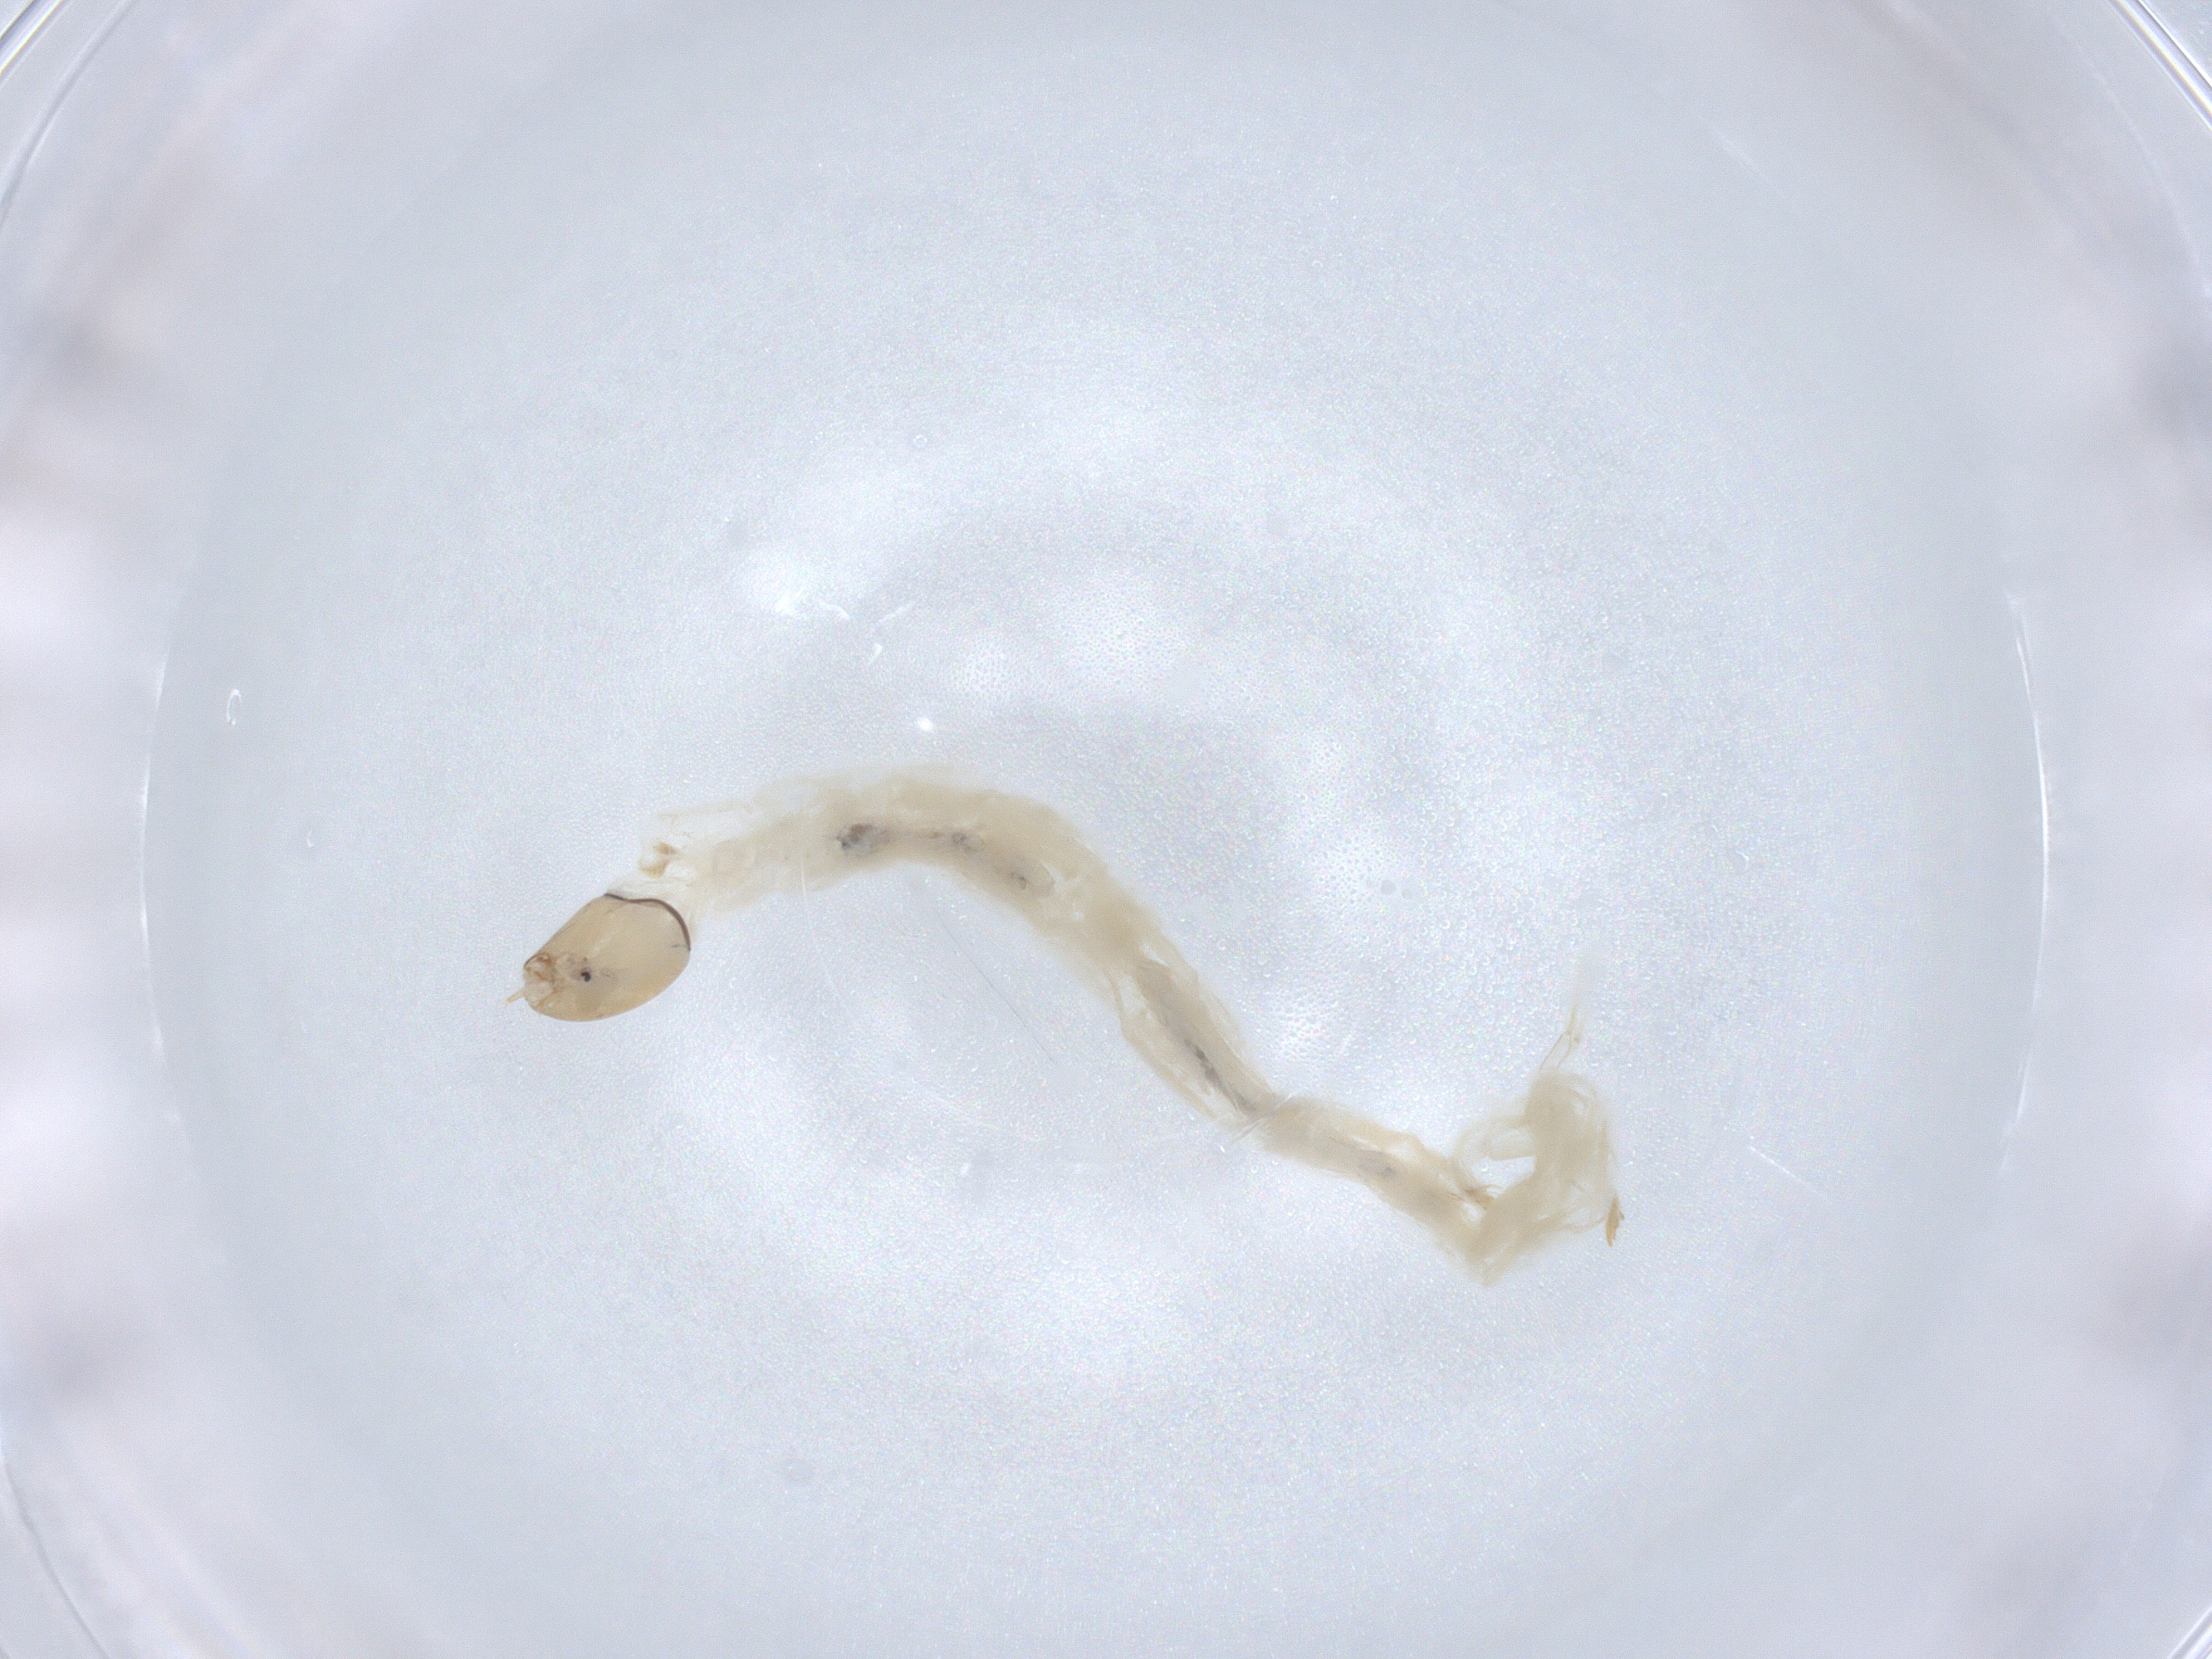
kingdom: Animalia
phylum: Arthropoda
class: Insecta
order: Diptera
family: Chironomidae
